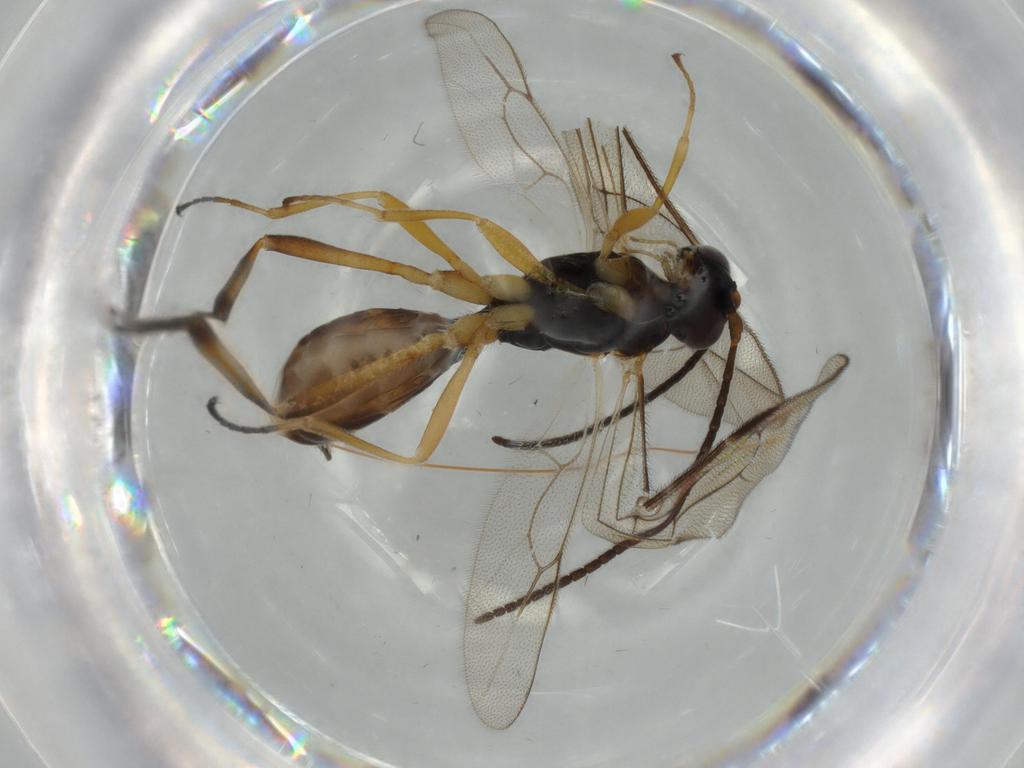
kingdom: Animalia
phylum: Arthropoda
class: Insecta
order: Hymenoptera
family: Ichneumonidae
